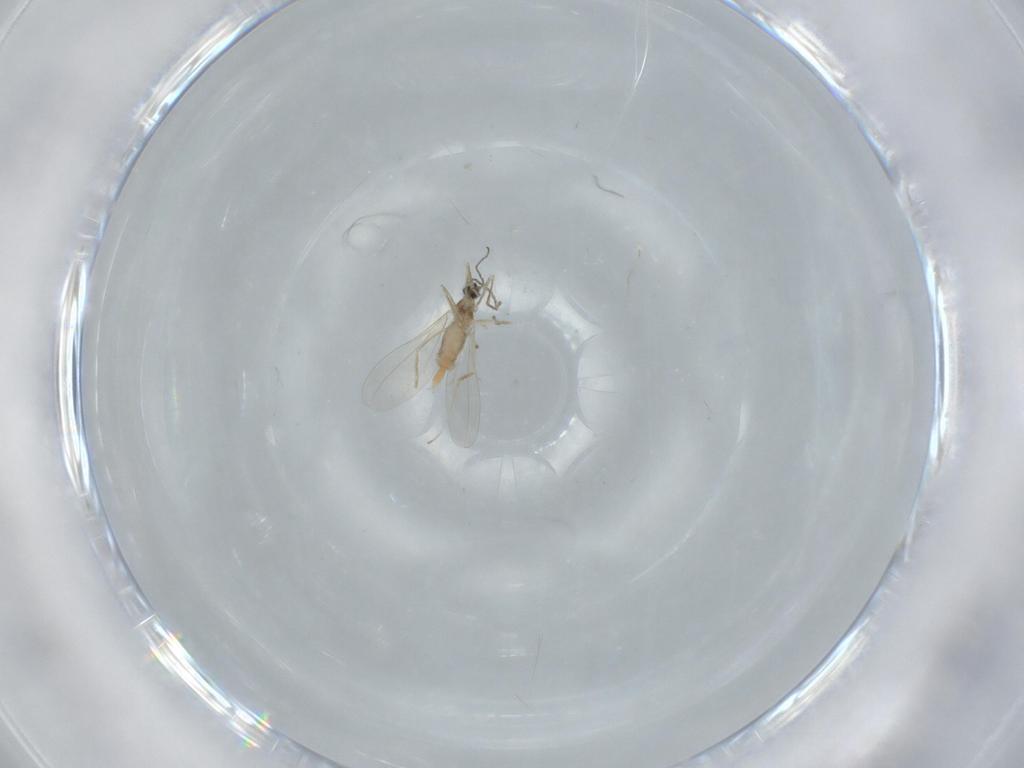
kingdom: Animalia
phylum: Arthropoda
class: Insecta
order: Diptera
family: Cecidomyiidae
